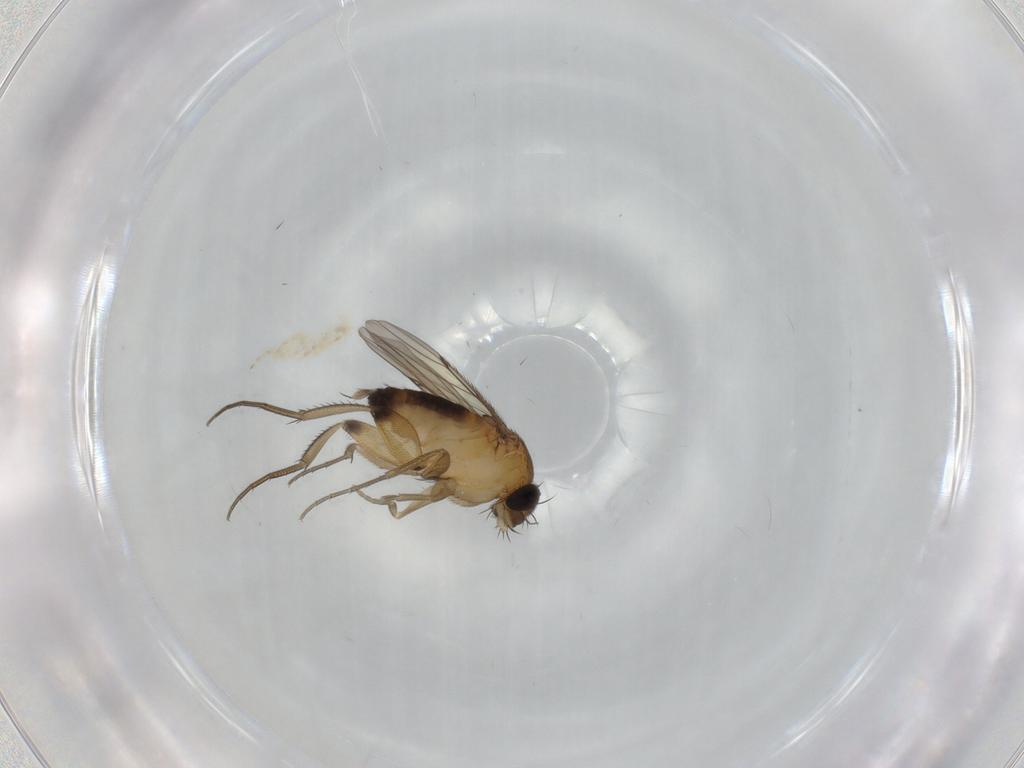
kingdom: Animalia
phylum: Arthropoda
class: Insecta
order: Diptera
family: Phoridae
